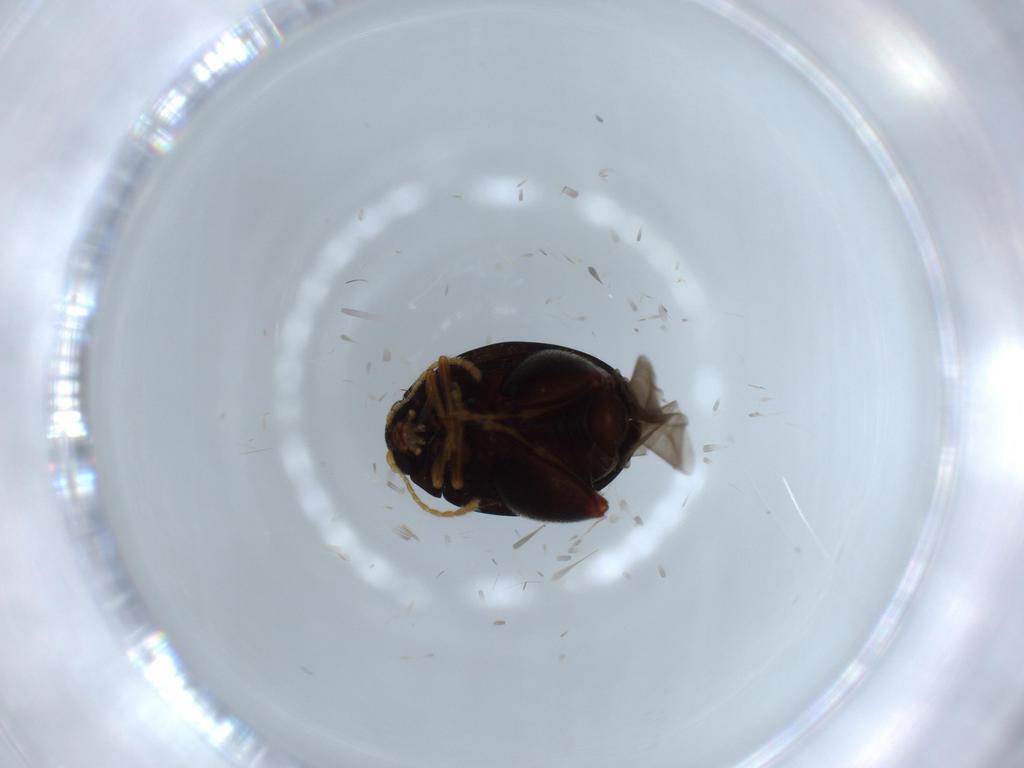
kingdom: Animalia
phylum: Arthropoda
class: Insecta
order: Coleoptera
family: Chrysomelidae
